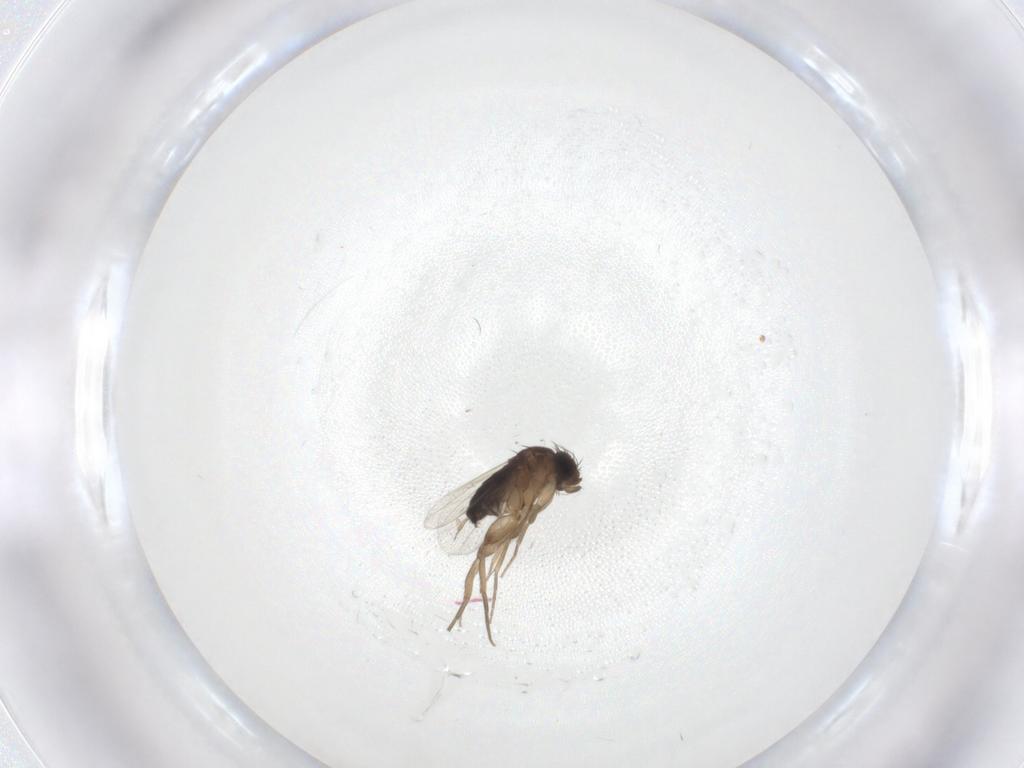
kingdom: Animalia
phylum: Arthropoda
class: Insecta
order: Diptera
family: Phoridae
